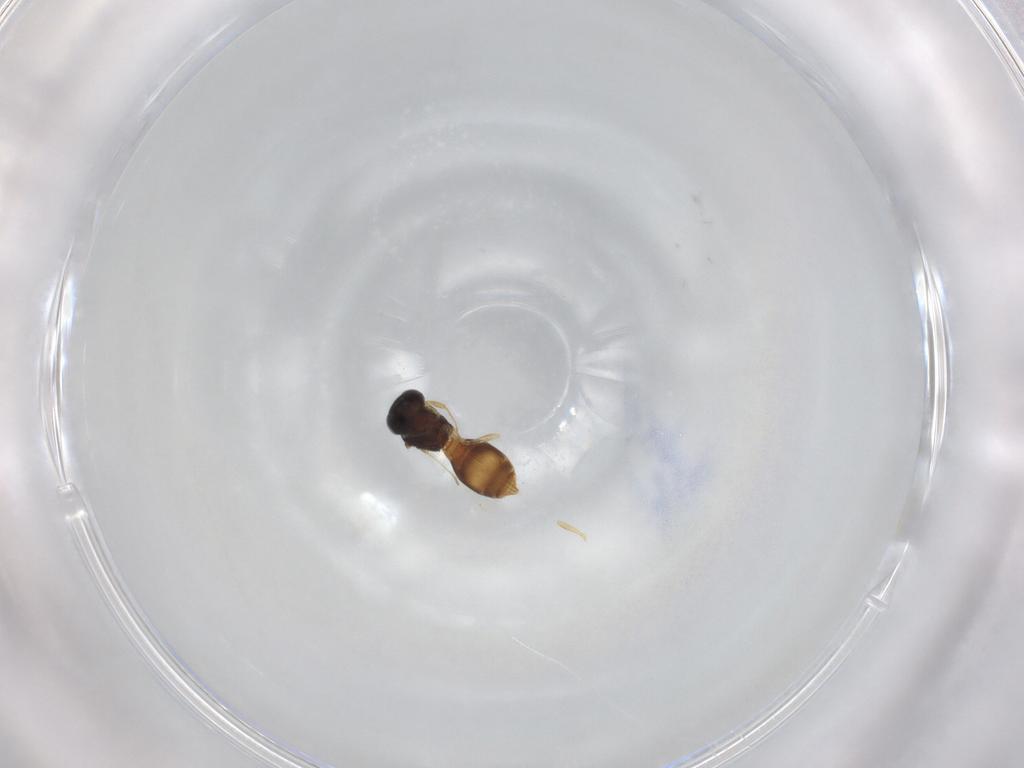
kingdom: Animalia
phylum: Arthropoda
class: Insecta
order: Hymenoptera
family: Scelionidae
